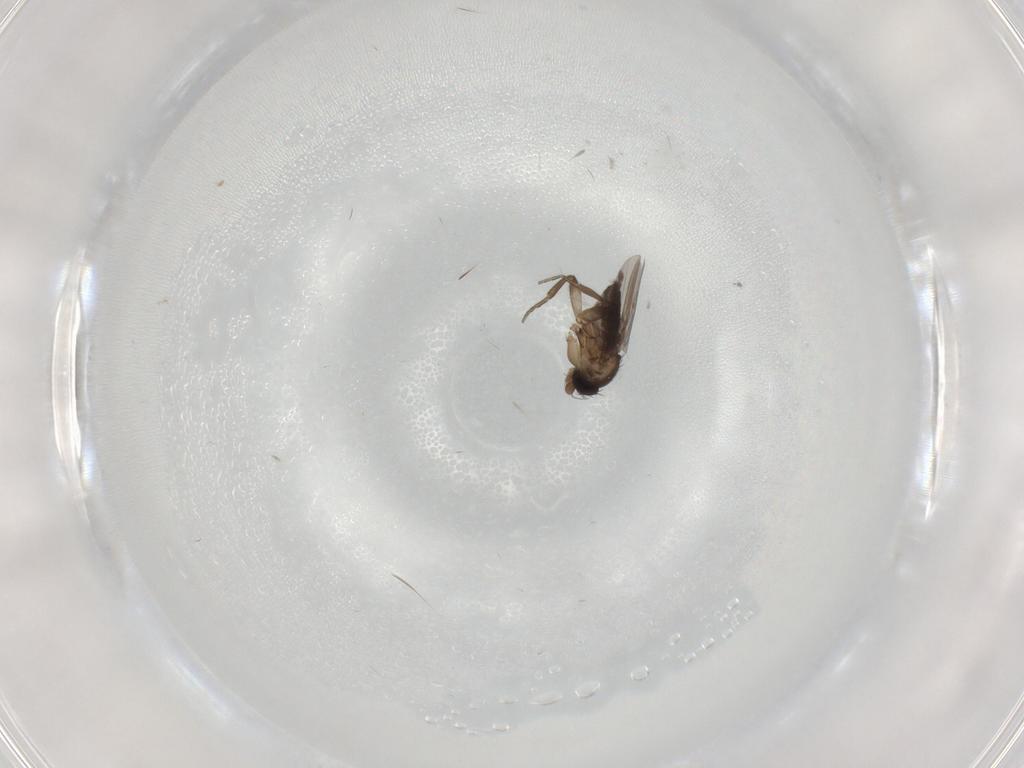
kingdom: Animalia
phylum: Arthropoda
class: Insecta
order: Diptera
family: Phoridae
